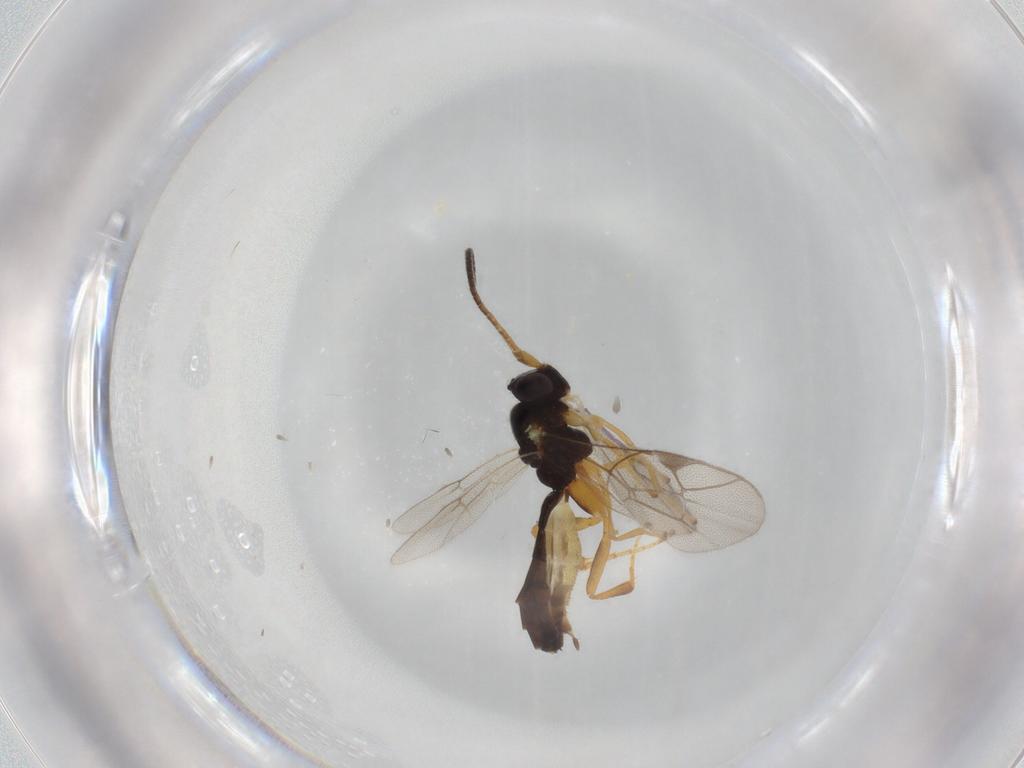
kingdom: Animalia
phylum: Arthropoda
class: Insecta
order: Hymenoptera
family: Ichneumonidae
